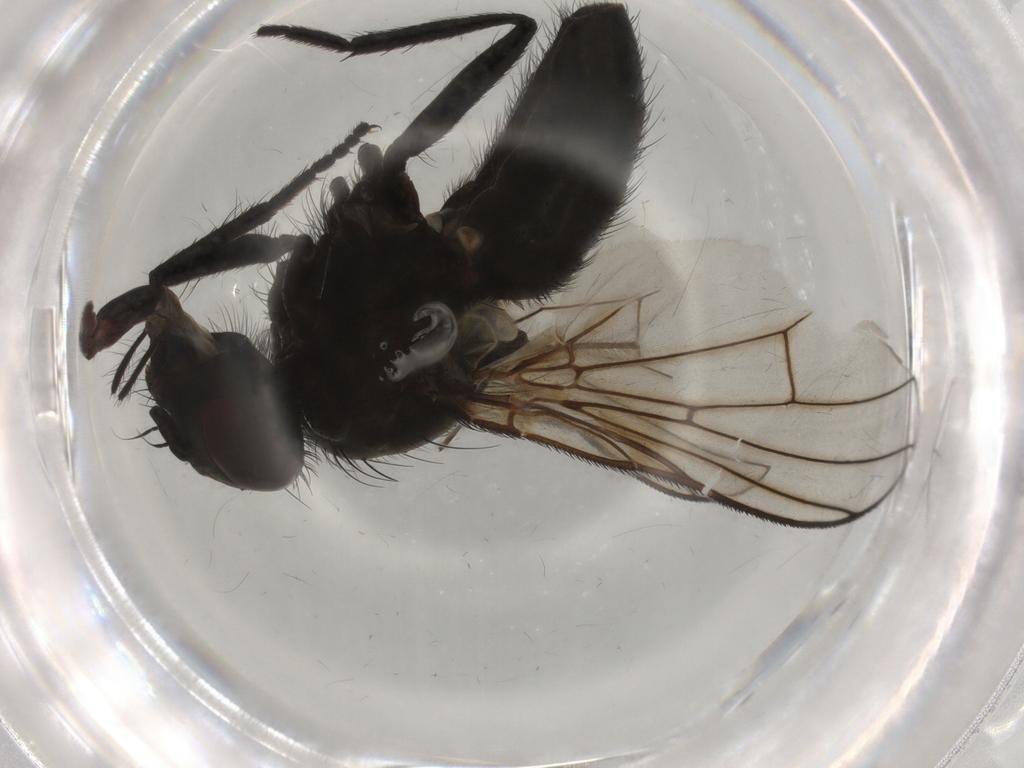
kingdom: Animalia
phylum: Arthropoda
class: Insecta
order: Diptera
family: Muscidae
